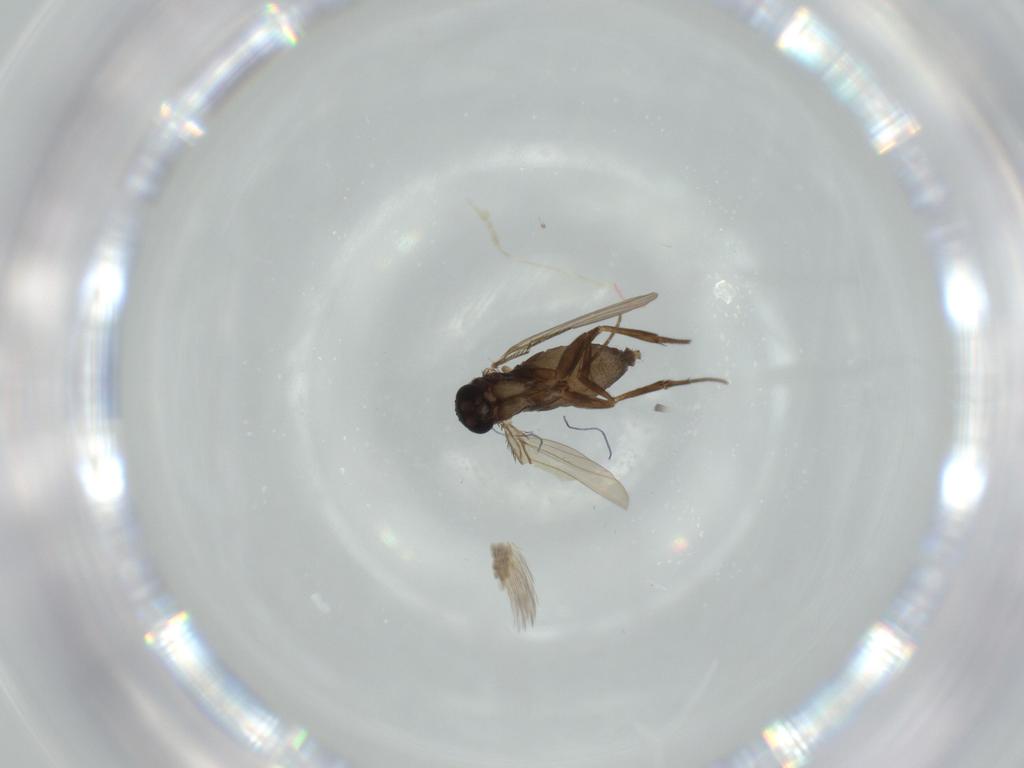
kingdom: Animalia
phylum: Arthropoda
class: Insecta
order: Diptera
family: Phoridae
